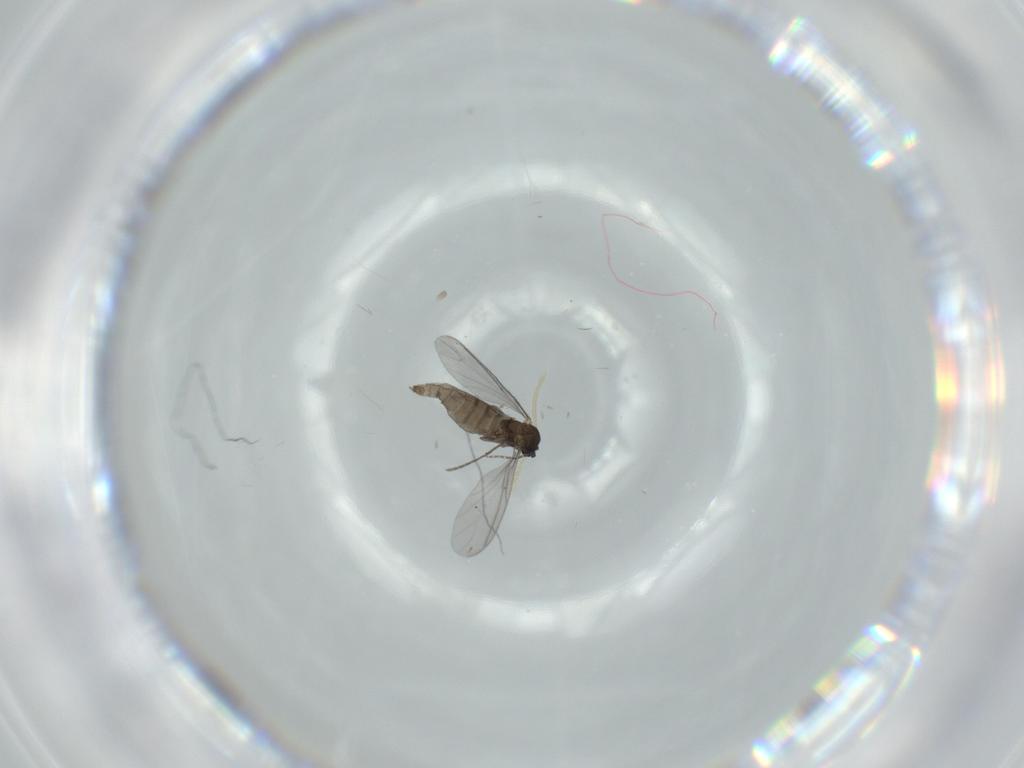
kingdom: Animalia
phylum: Arthropoda
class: Insecta
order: Diptera
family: Sciaridae
